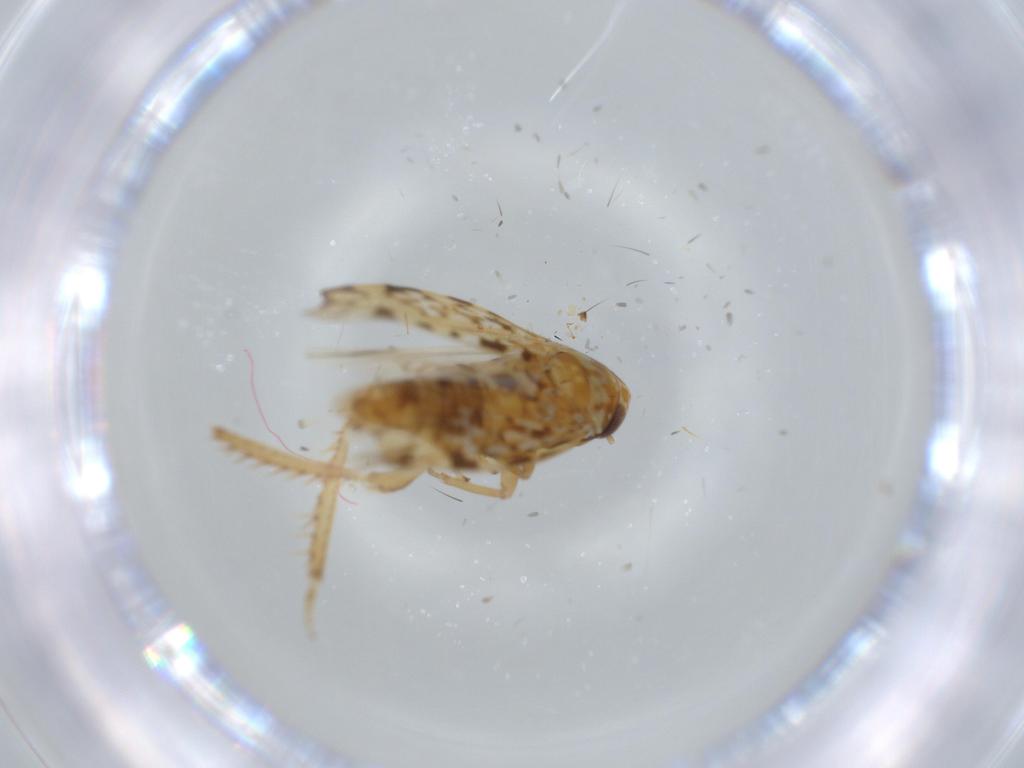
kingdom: Animalia
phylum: Arthropoda
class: Insecta
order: Hemiptera
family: Cicadellidae
